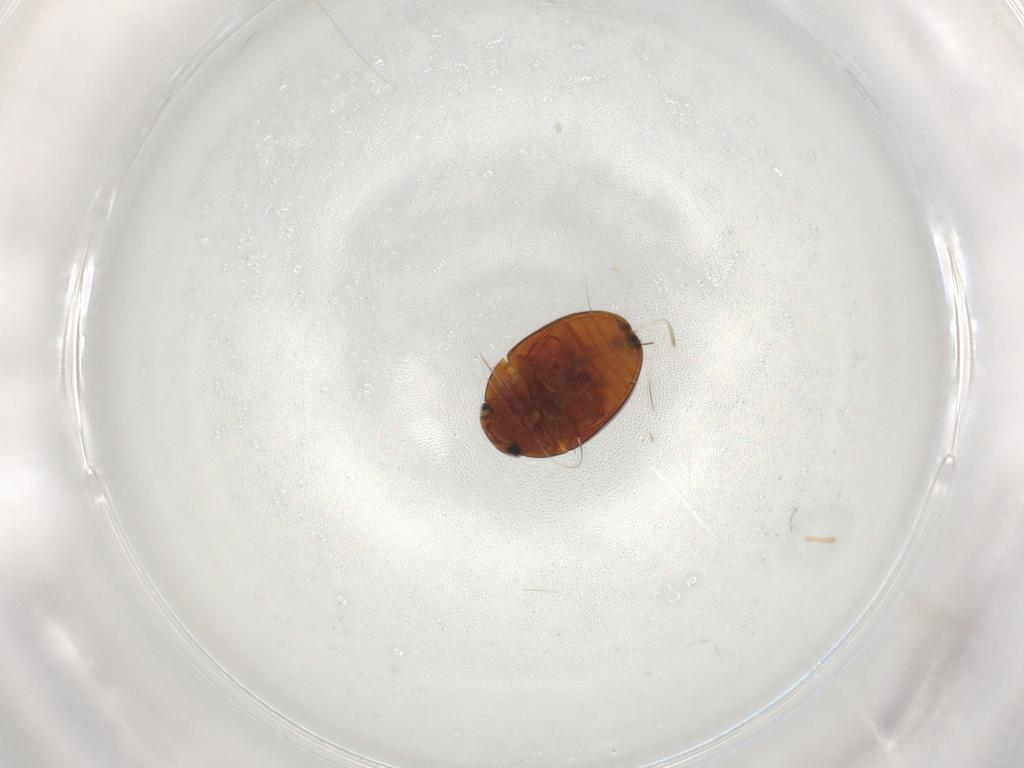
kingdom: Animalia
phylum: Arthropoda
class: Insecta
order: Coleoptera
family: Phalacridae
